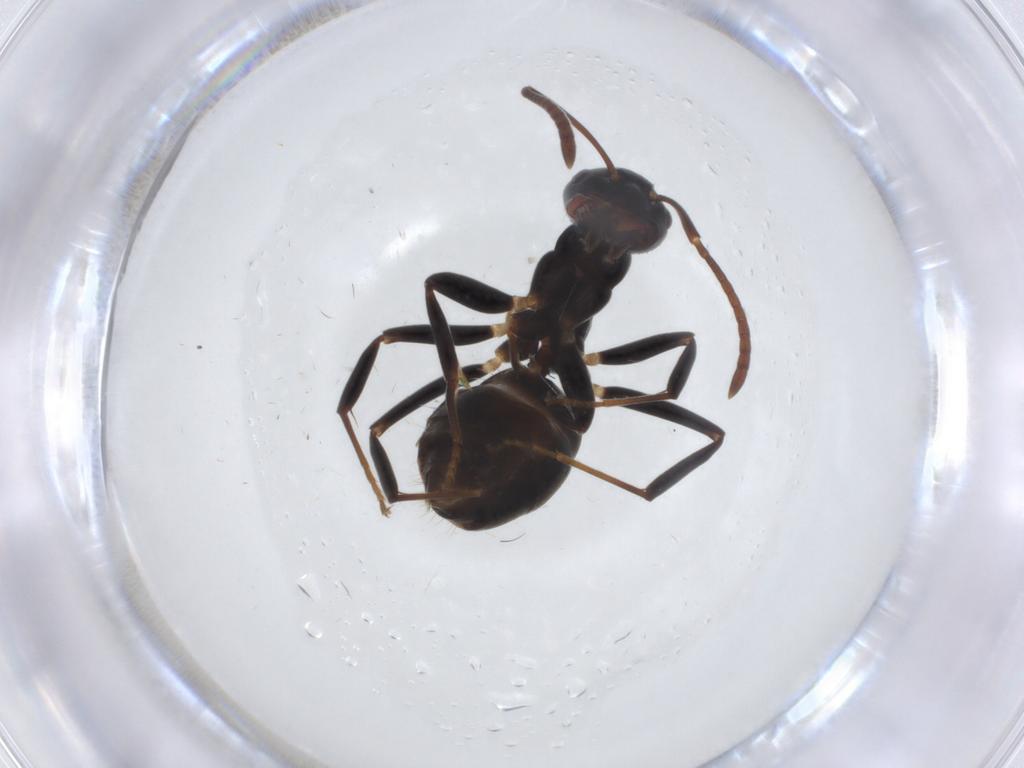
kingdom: Animalia
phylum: Arthropoda
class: Insecta
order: Hymenoptera
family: Formicidae
